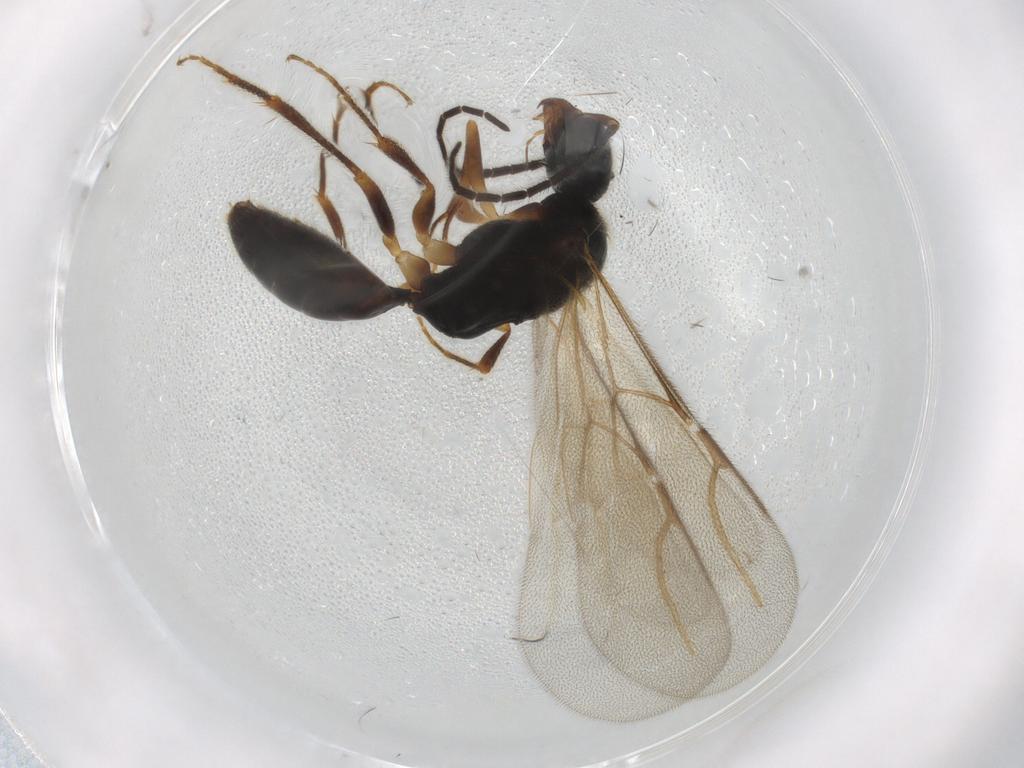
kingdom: Animalia
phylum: Arthropoda
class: Insecta
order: Hymenoptera
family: Bethylidae
